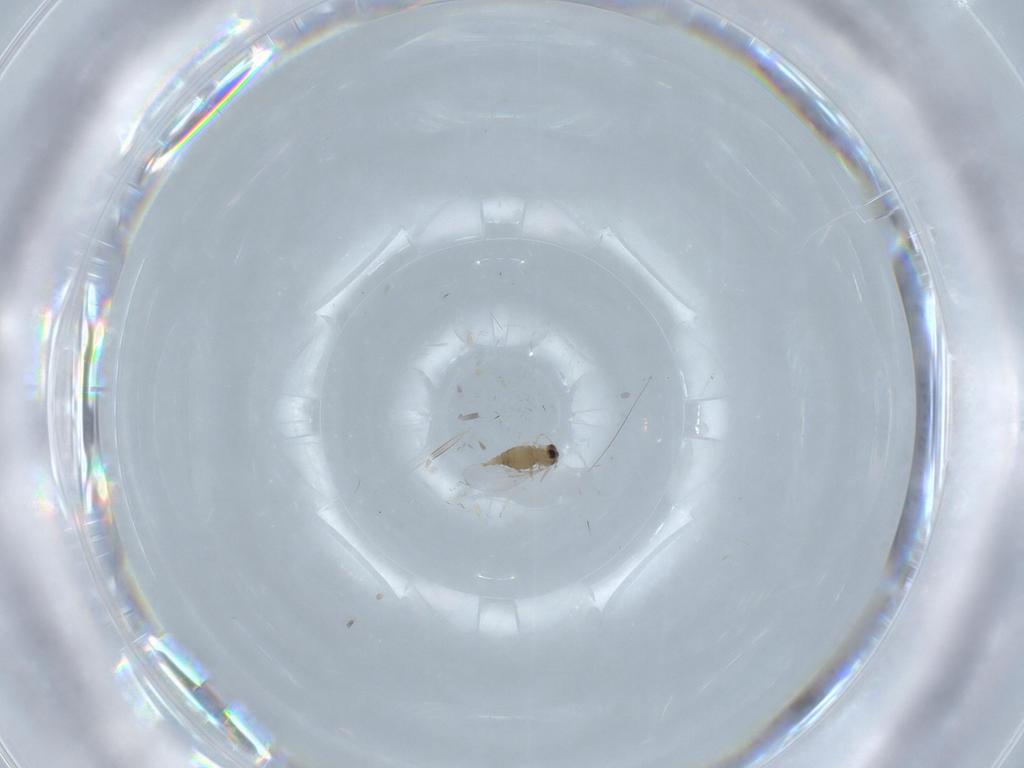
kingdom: Animalia
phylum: Arthropoda
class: Insecta
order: Diptera
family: Cecidomyiidae
